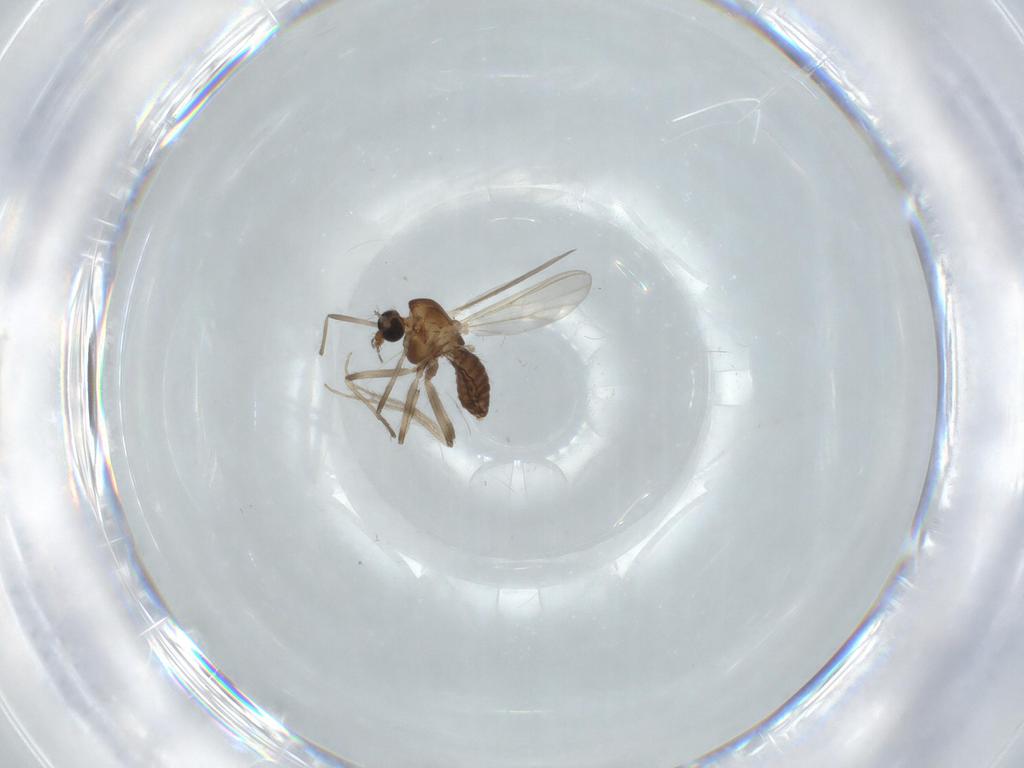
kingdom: Animalia
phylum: Arthropoda
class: Insecta
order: Diptera
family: Chironomidae
